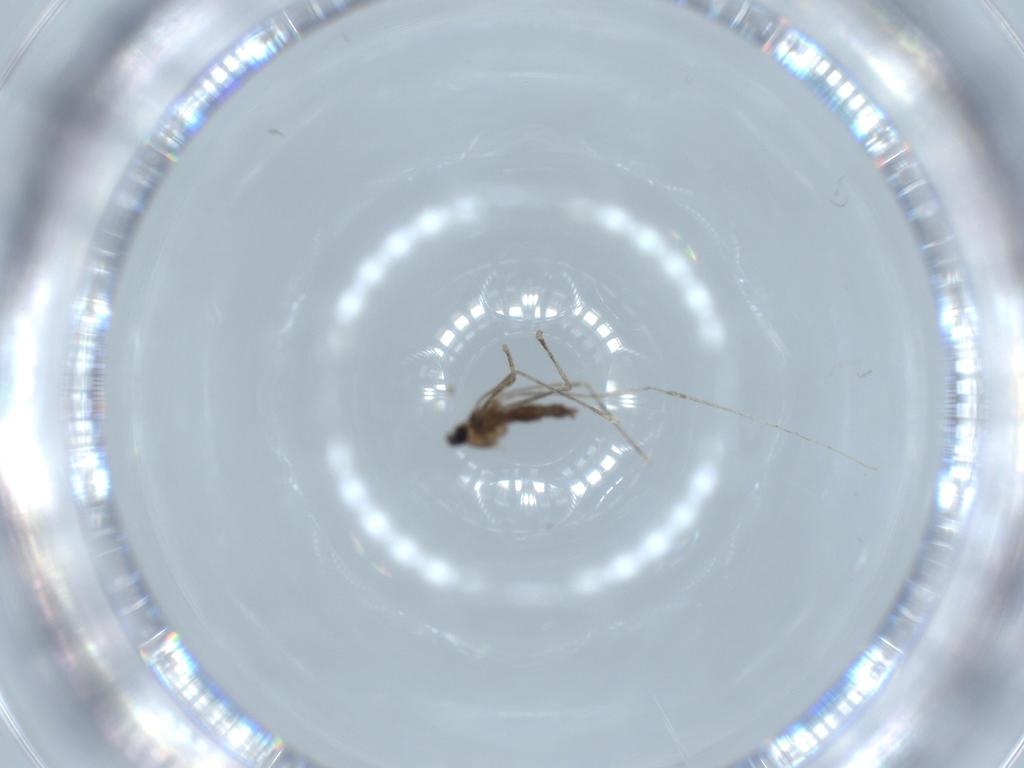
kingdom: Animalia
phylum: Arthropoda
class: Insecta
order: Diptera
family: Cecidomyiidae
